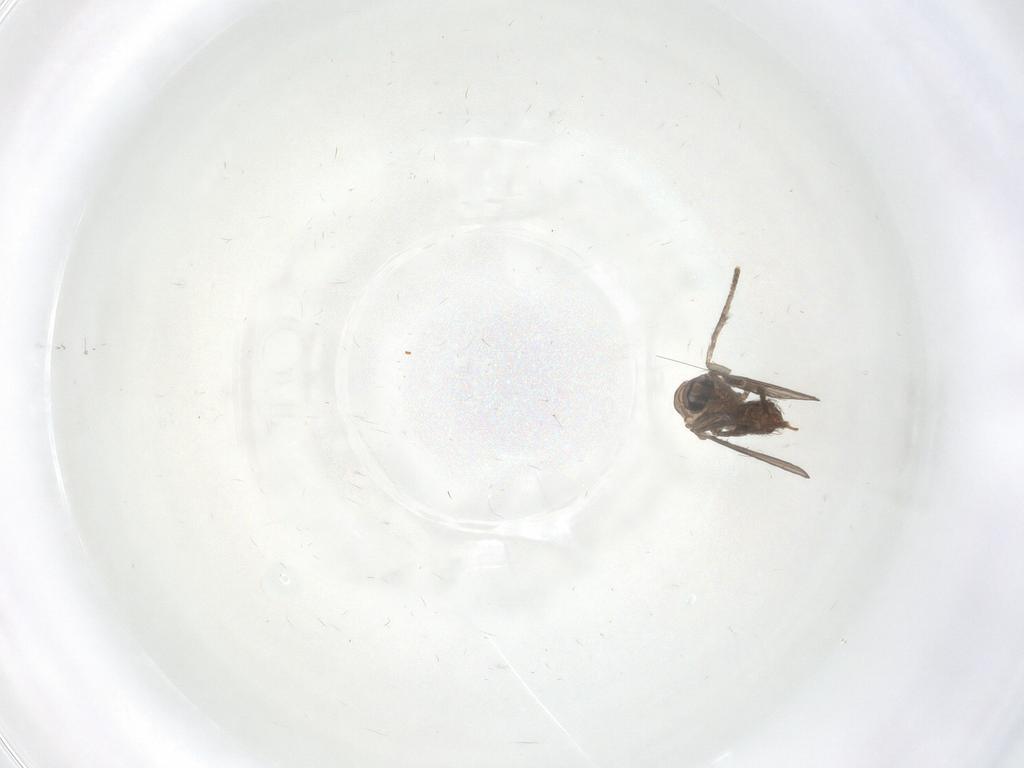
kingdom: Animalia
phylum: Arthropoda
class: Insecta
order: Diptera
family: Psychodidae
